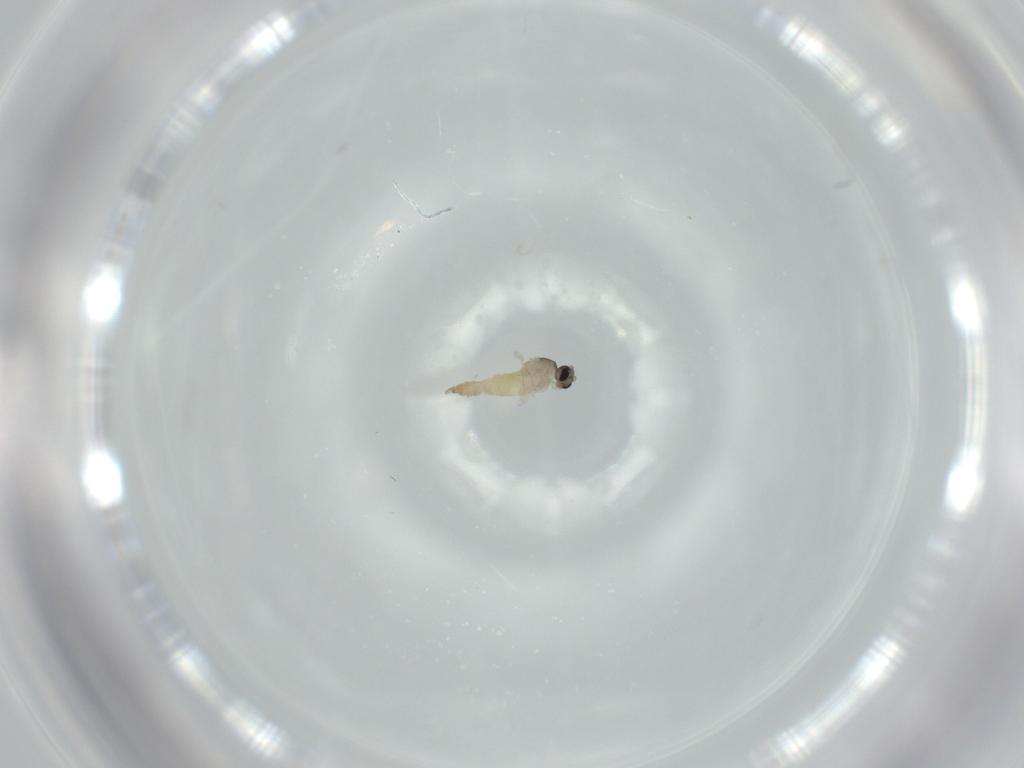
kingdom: Animalia
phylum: Arthropoda
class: Insecta
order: Diptera
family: Cecidomyiidae
